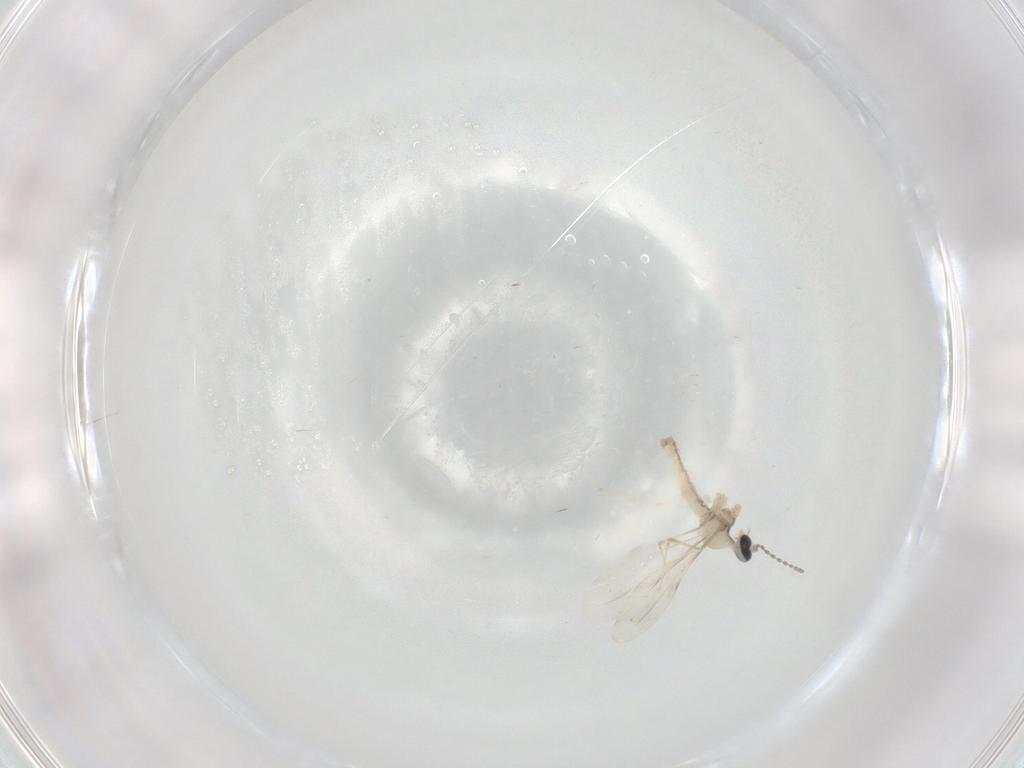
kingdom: Animalia
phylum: Arthropoda
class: Insecta
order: Diptera
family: Cecidomyiidae
